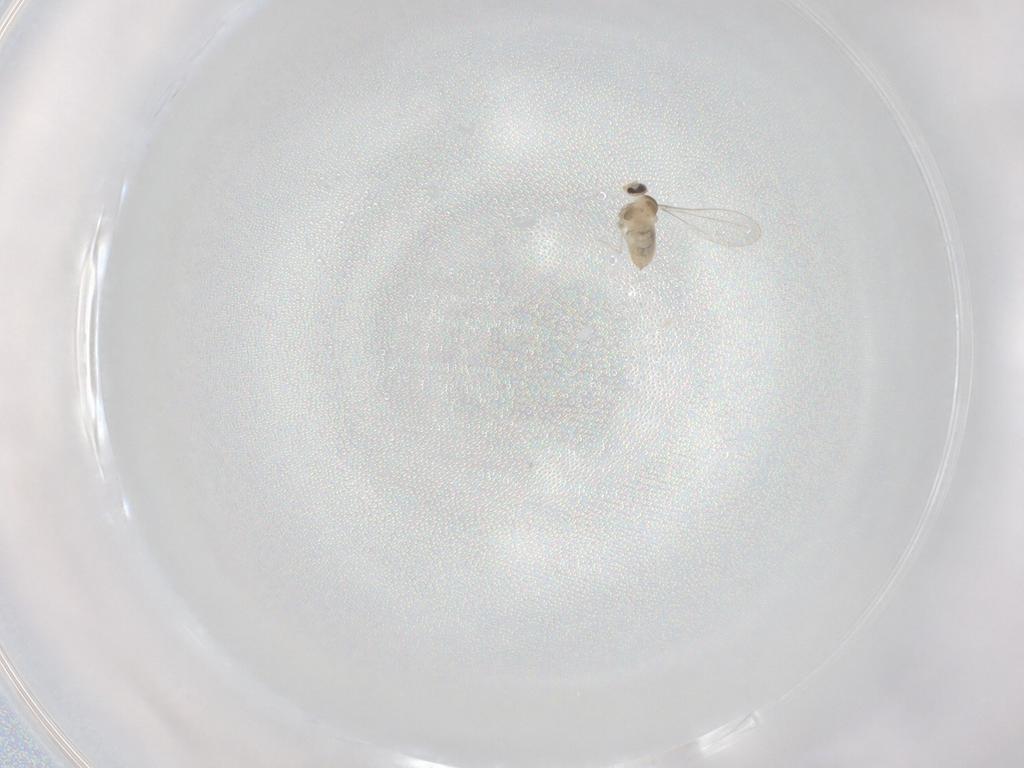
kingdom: Animalia
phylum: Arthropoda
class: Insecta
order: Diptera
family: Cecidomyiidae
